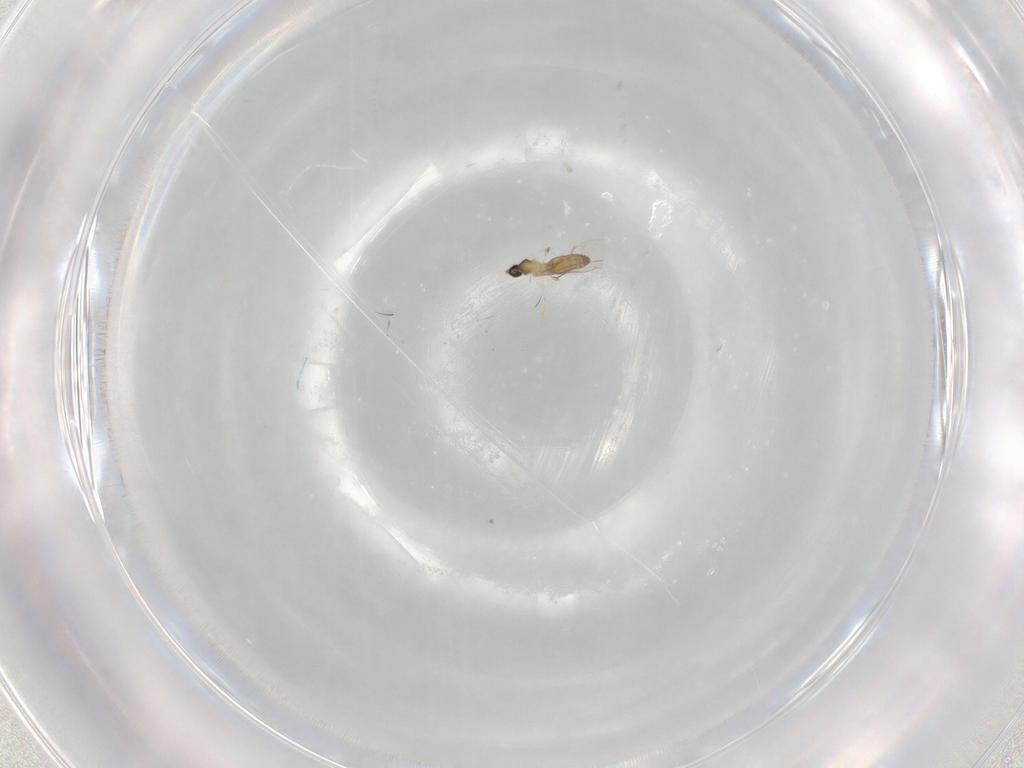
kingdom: Animalia
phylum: Arthropoda
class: Insecta
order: Diptera
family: Cecidomyiidae
